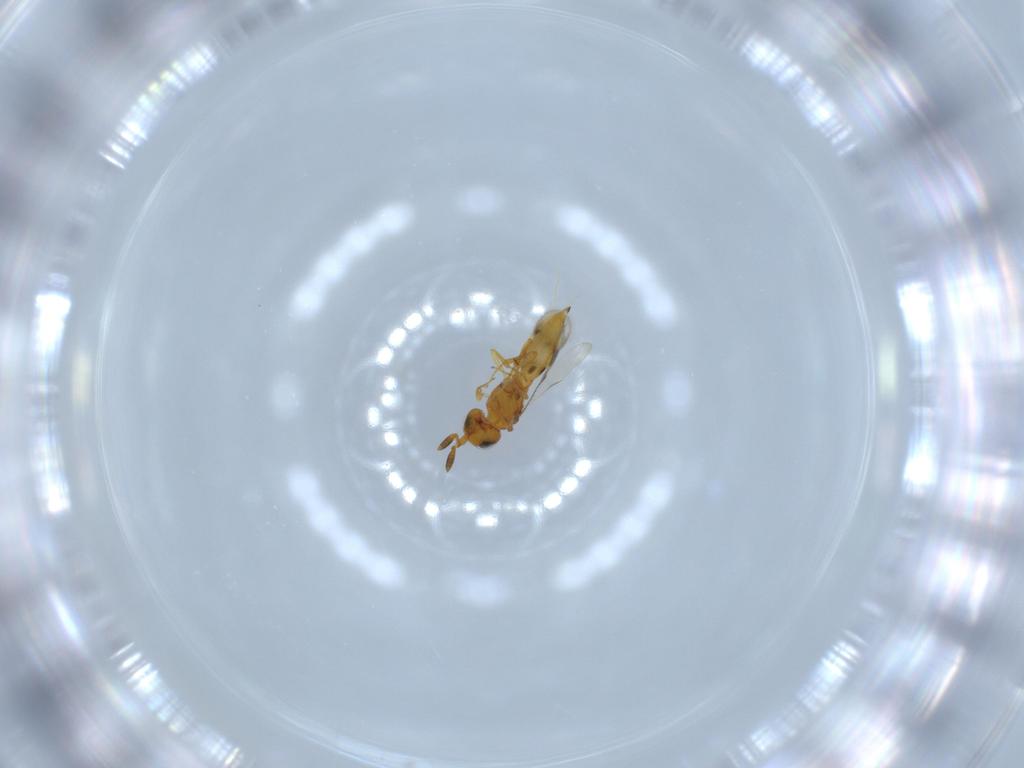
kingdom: Animalia
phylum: Arthropoda
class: Insecta
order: Hymenoptera
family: Scelionidae
